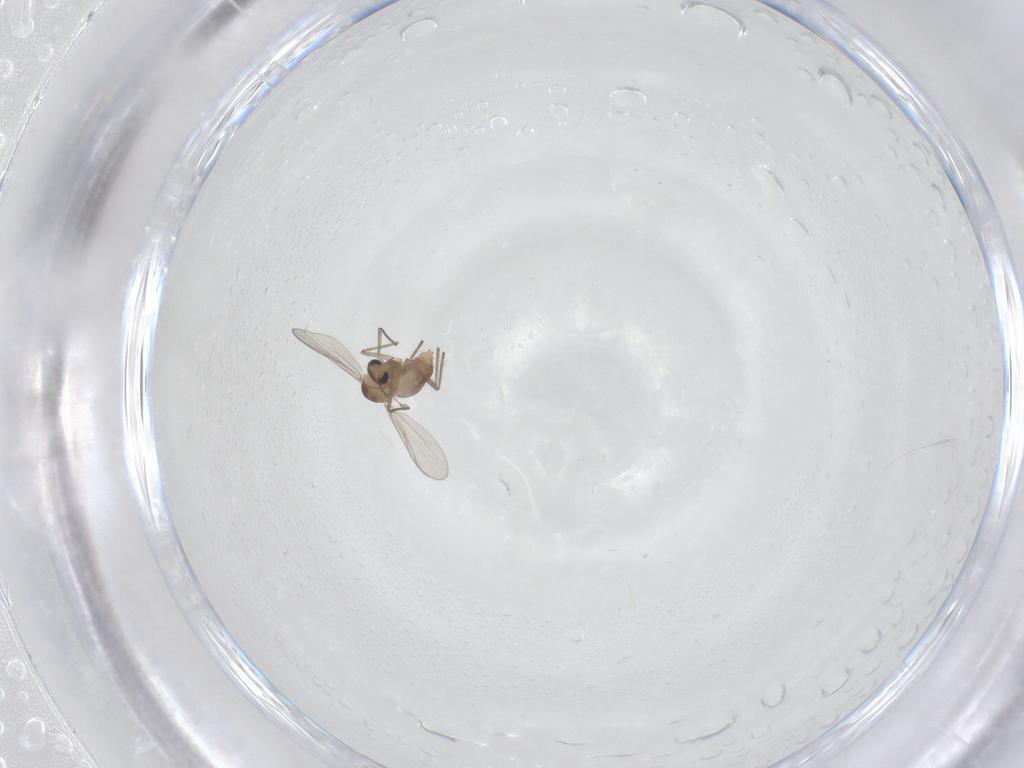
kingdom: Animalia
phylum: Arthropoda
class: Insecta
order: Diptera
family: Chironomidae
